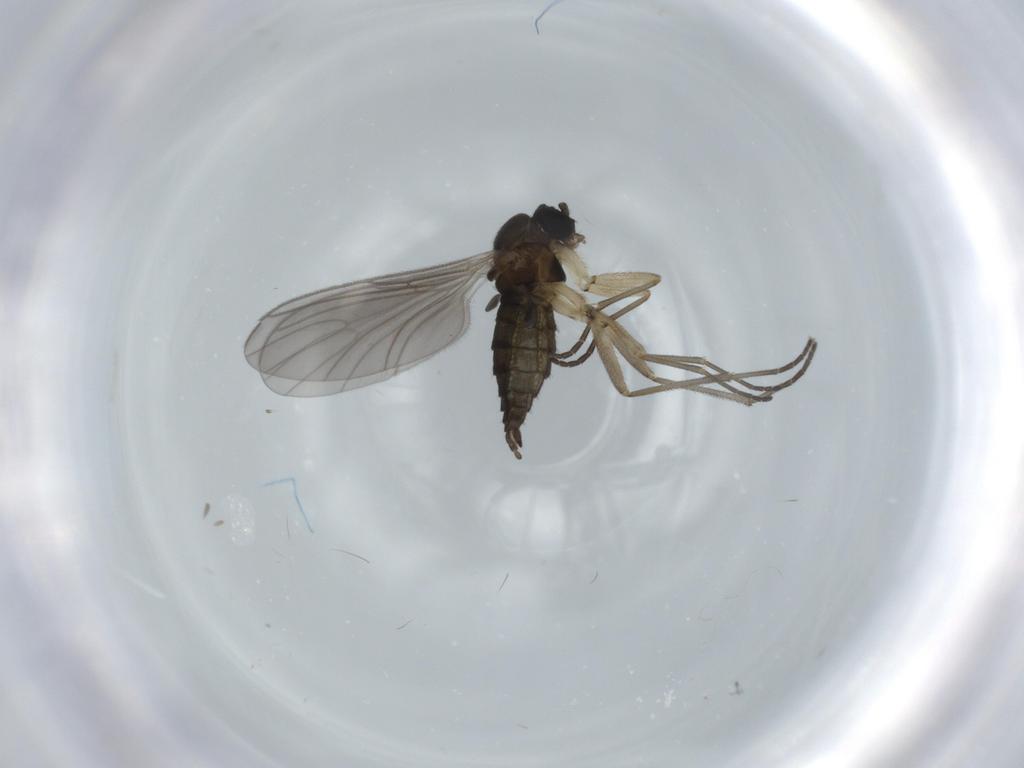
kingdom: Animalia
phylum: Arthropoda
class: Insecta
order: Diptera
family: Sciaridae
